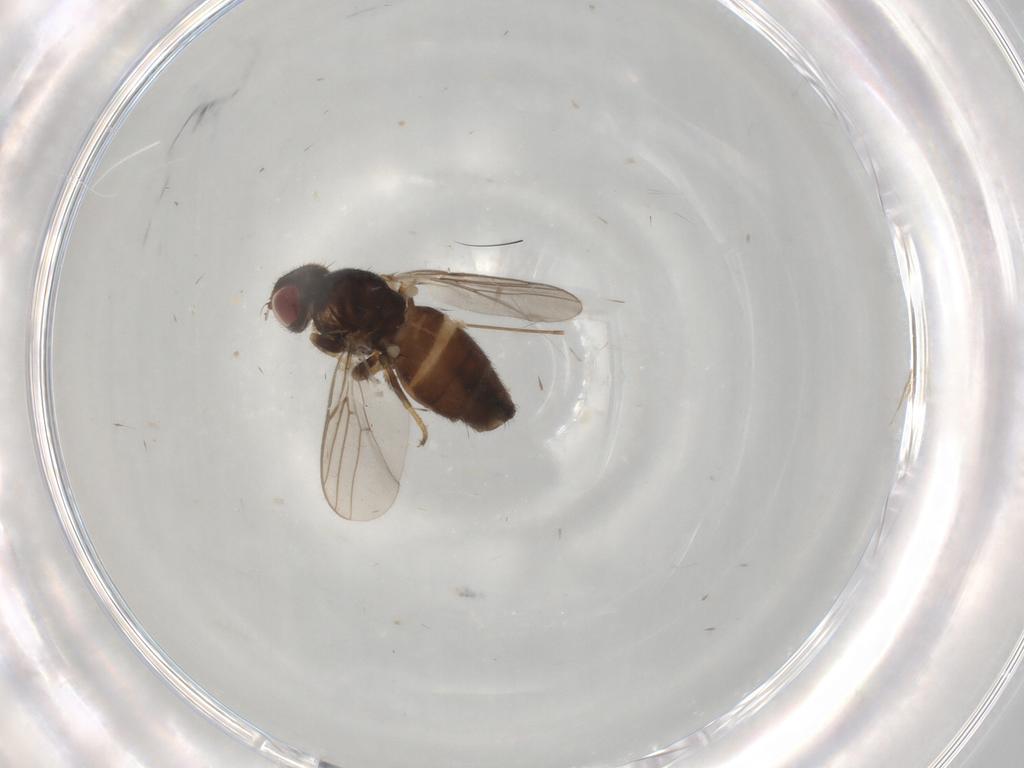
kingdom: Animalia
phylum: Arthropoda
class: Insecta
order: Diptera
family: Chloropidae
